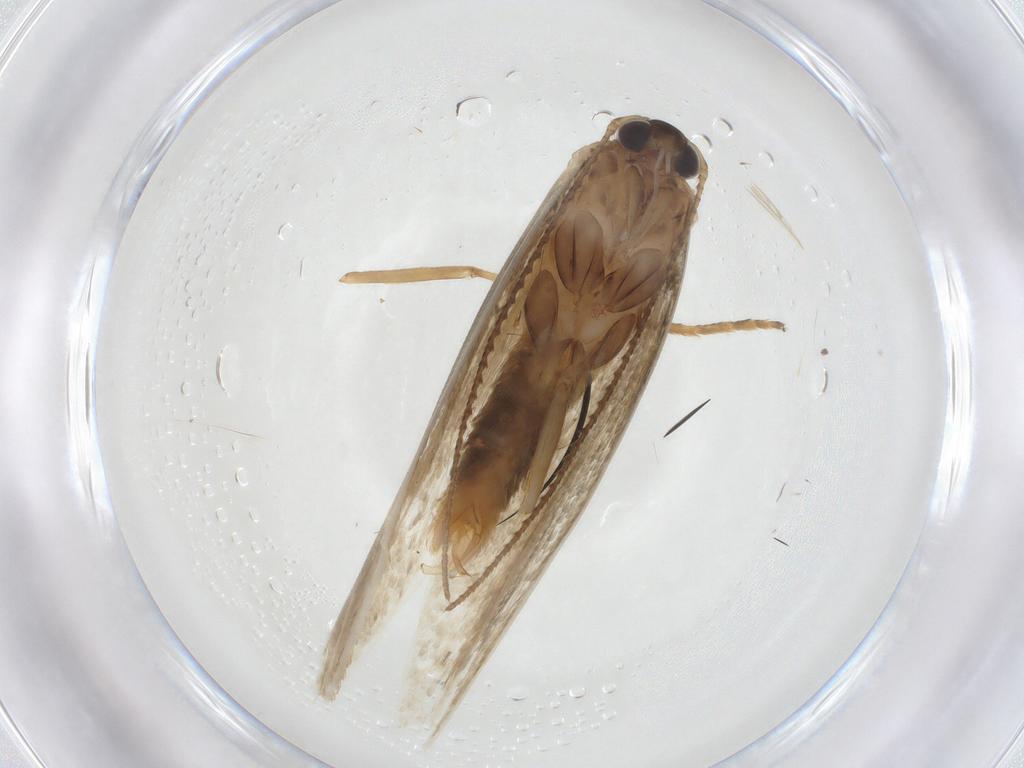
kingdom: Animalia
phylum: Arthropoda
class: Insecta
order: Lepidoptera
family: Erebidae
